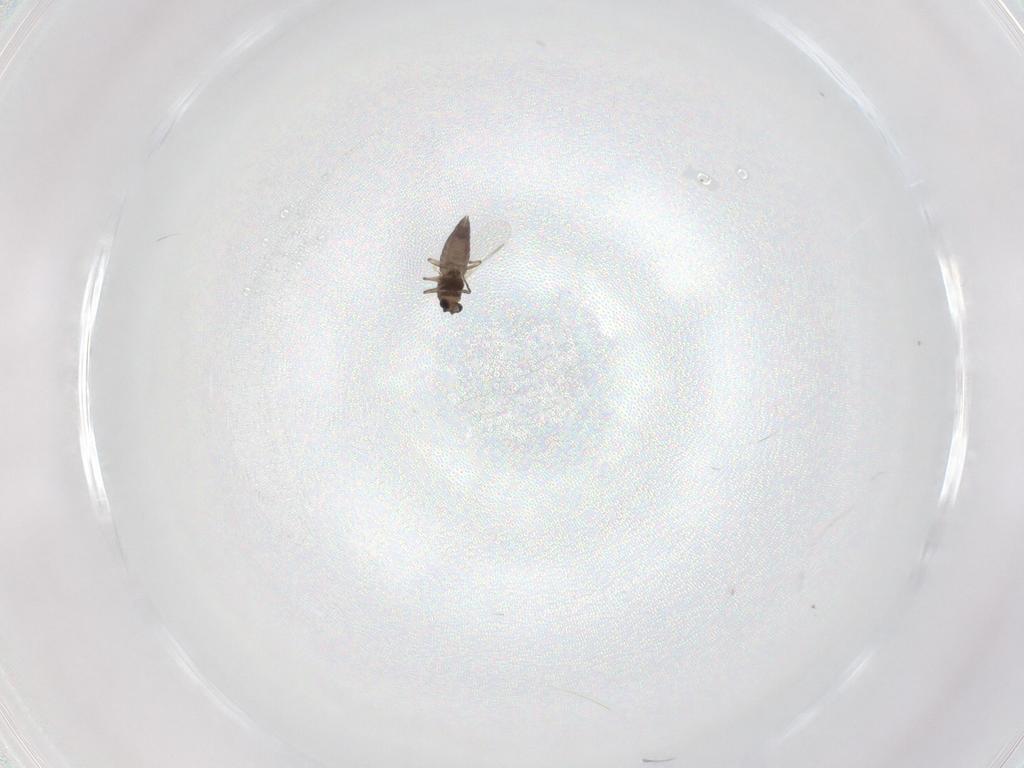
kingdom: Animalia
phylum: Arthropoda
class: Insecta
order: Diptera
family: Chironomidae
